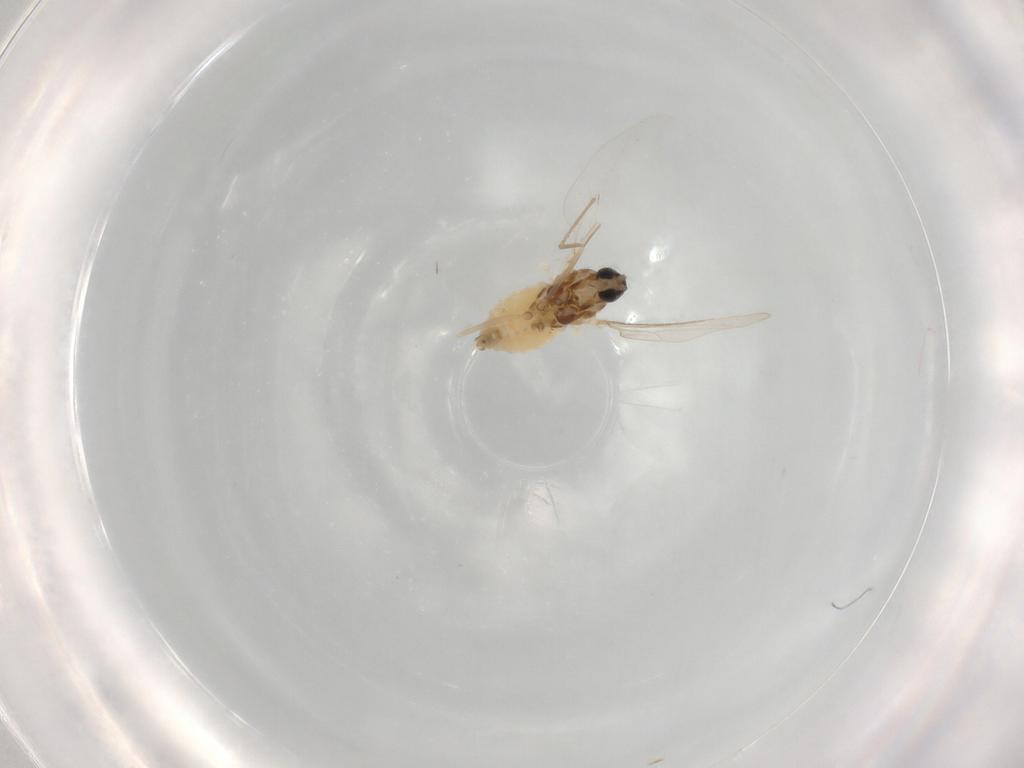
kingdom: Animalia
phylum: Arthropoda
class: Insecta
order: Diptera
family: Cecidomyiidae
